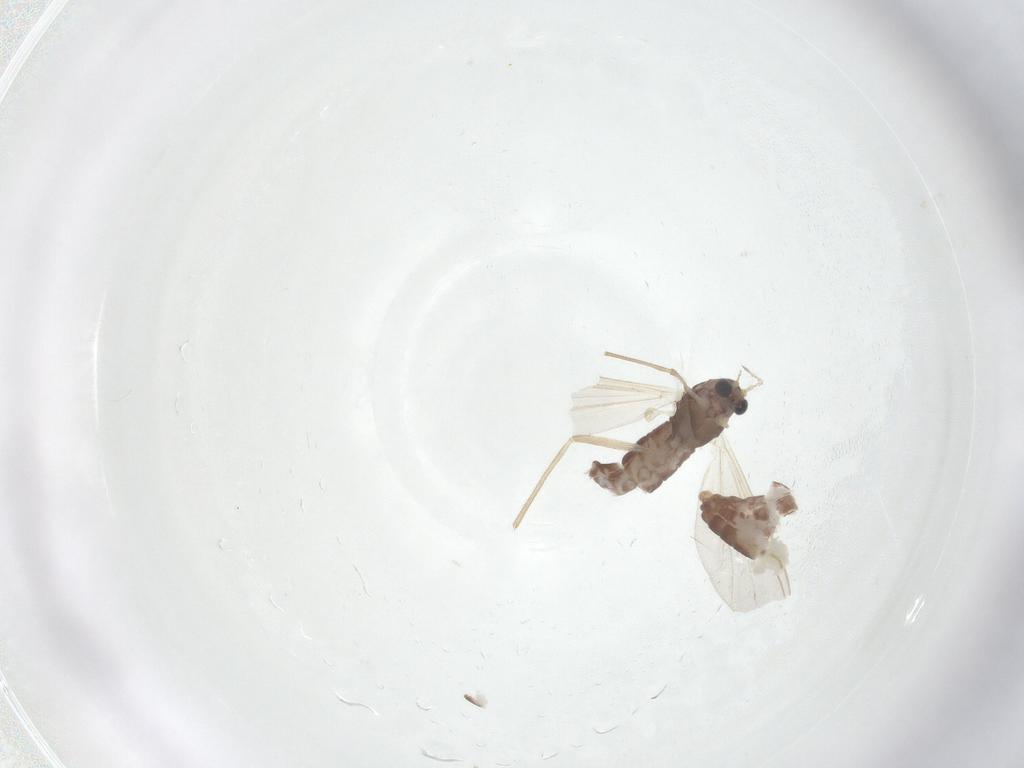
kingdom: Animalia
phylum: Arthropoda
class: Insecta
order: Diptera
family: Chironomidae
